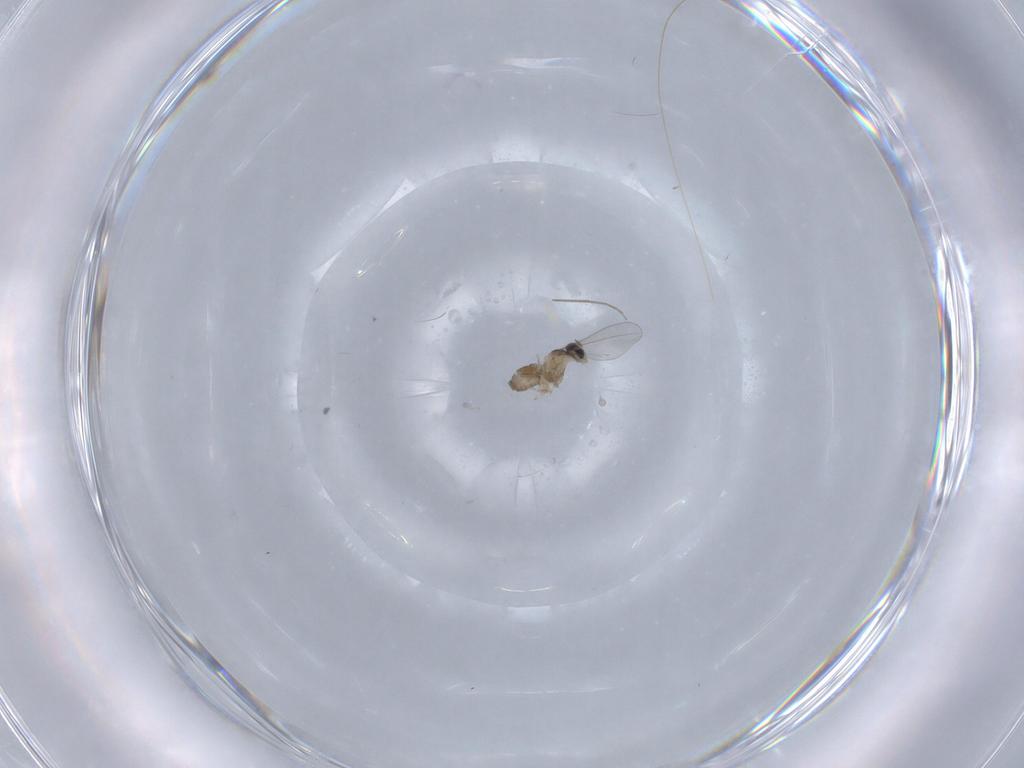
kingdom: Animalia
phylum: Arthropoda
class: Insecta
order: Diptera
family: Cecidomyiidae
